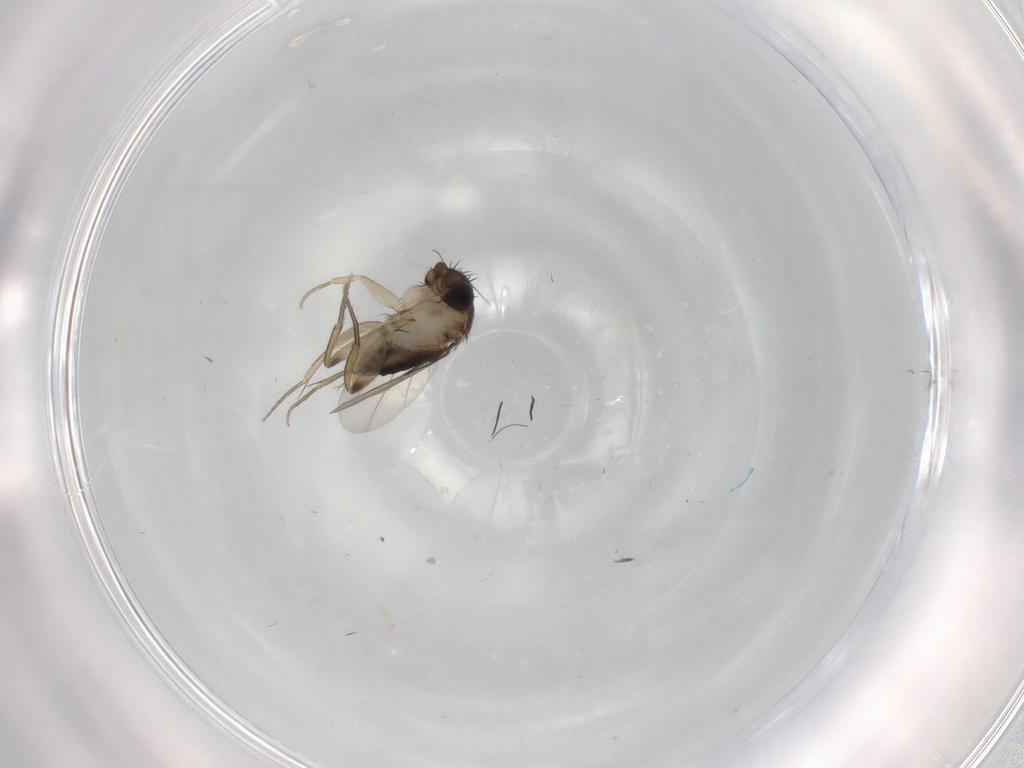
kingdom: Animalia
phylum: Arthropoda
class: Insecta
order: Diptera
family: Phoridae
